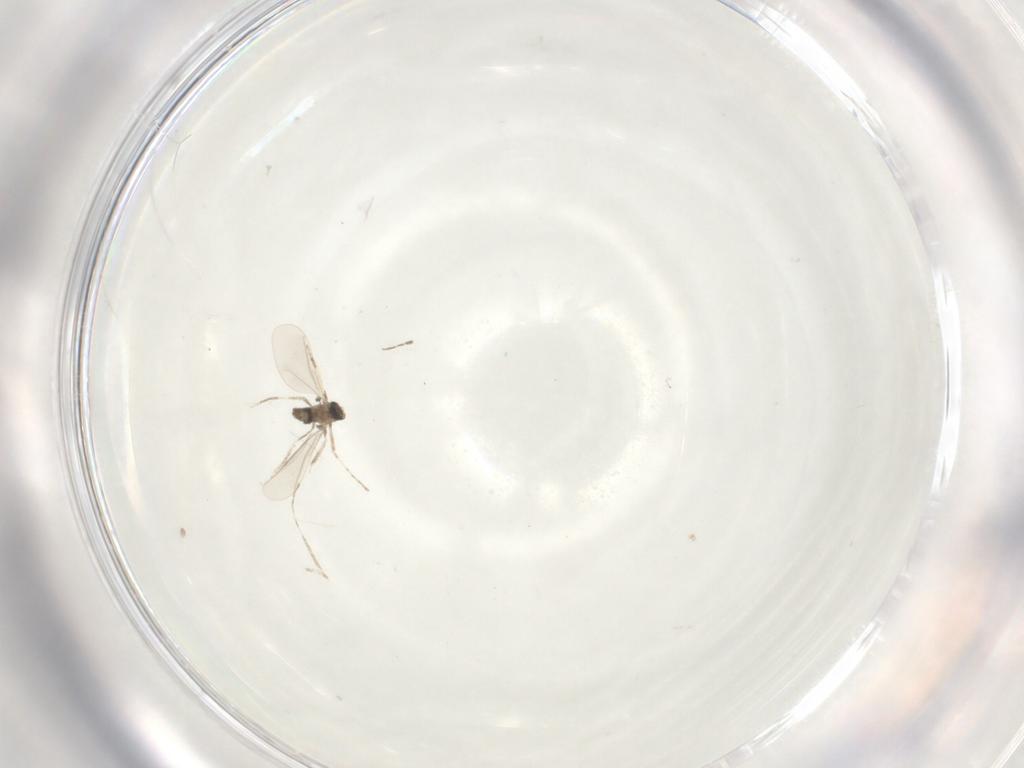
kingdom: Animalia
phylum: Arthropoda
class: Insecta
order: Diptera
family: Cecidomyiidae
